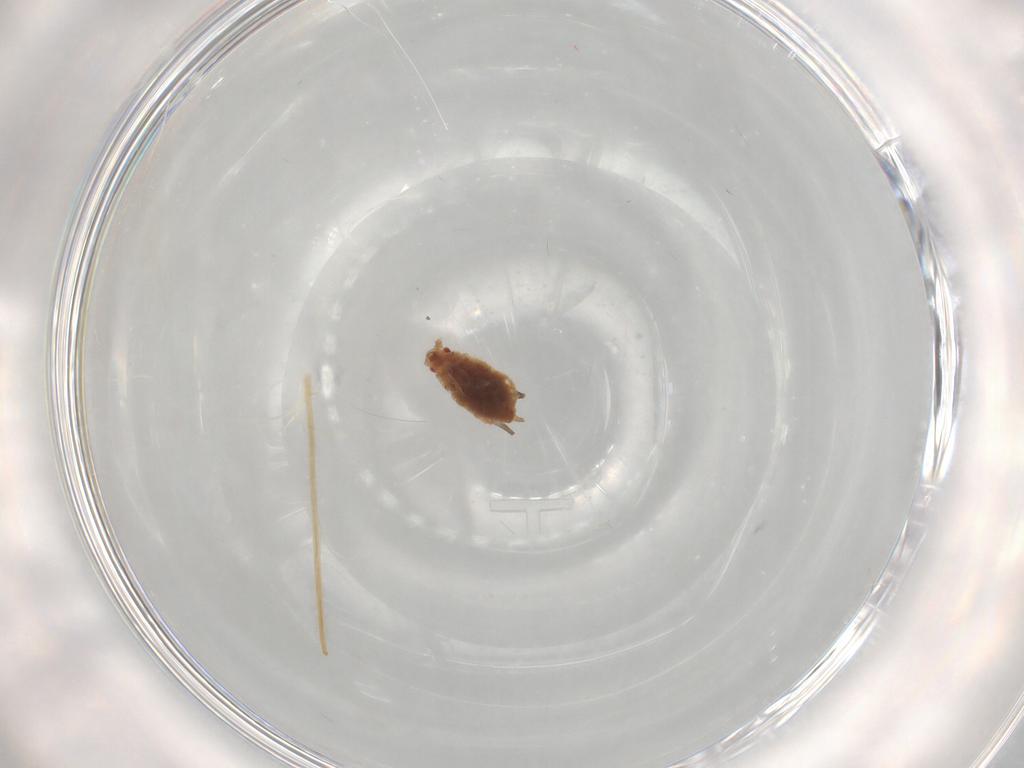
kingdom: Animalia
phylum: Arthropoda
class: Insecta
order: Hemiptera
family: Aphididae
